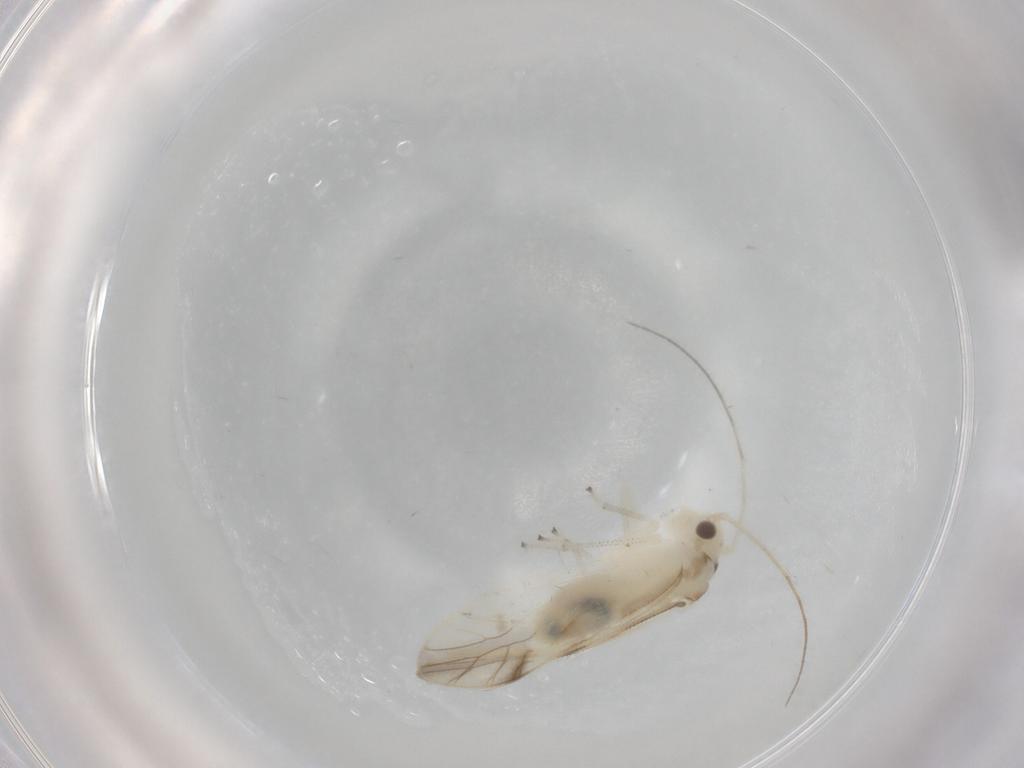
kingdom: Animalia
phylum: Arthropoda
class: Insecta
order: Psocodea
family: Caeciliusidae
